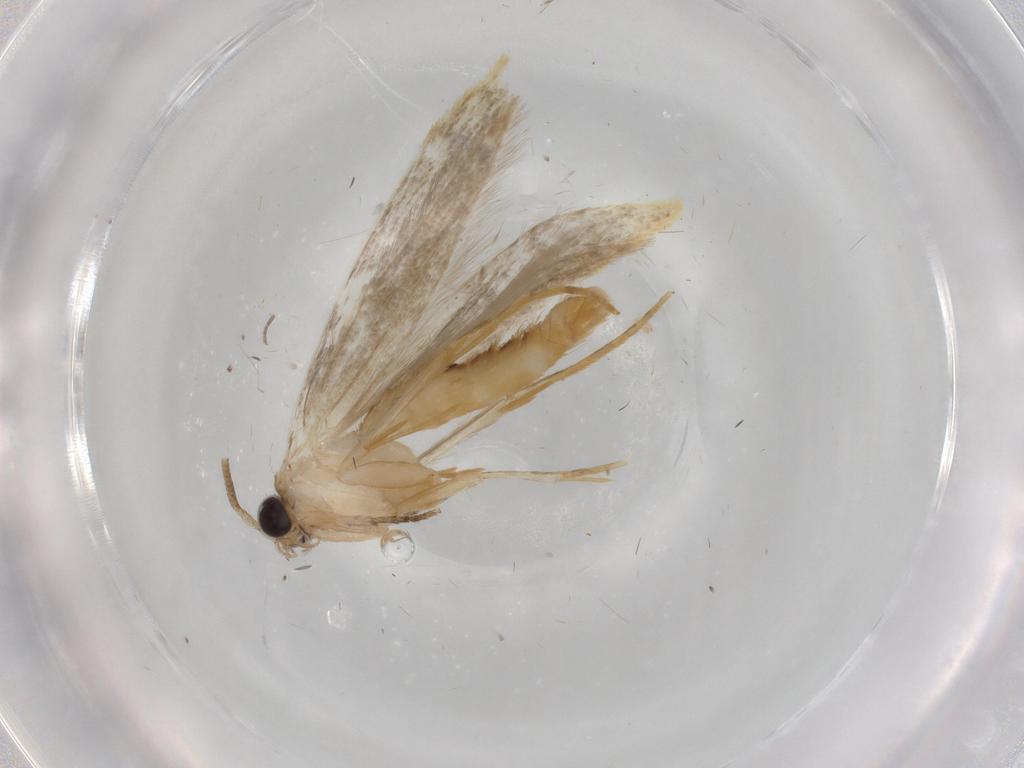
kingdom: Animalia
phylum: Arthropoda
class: Insecta
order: Lepidoptera
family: Tineidae
